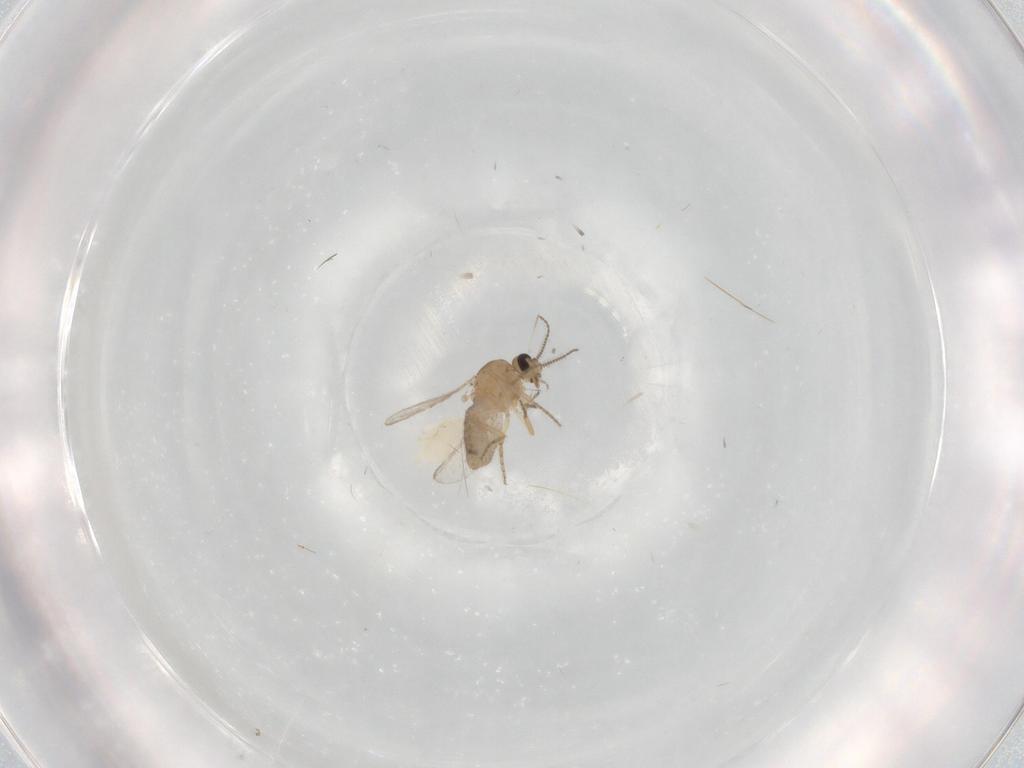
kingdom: Animalia
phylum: Arthropoda
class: Insecta
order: Diptera
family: Ceratopogonidae
